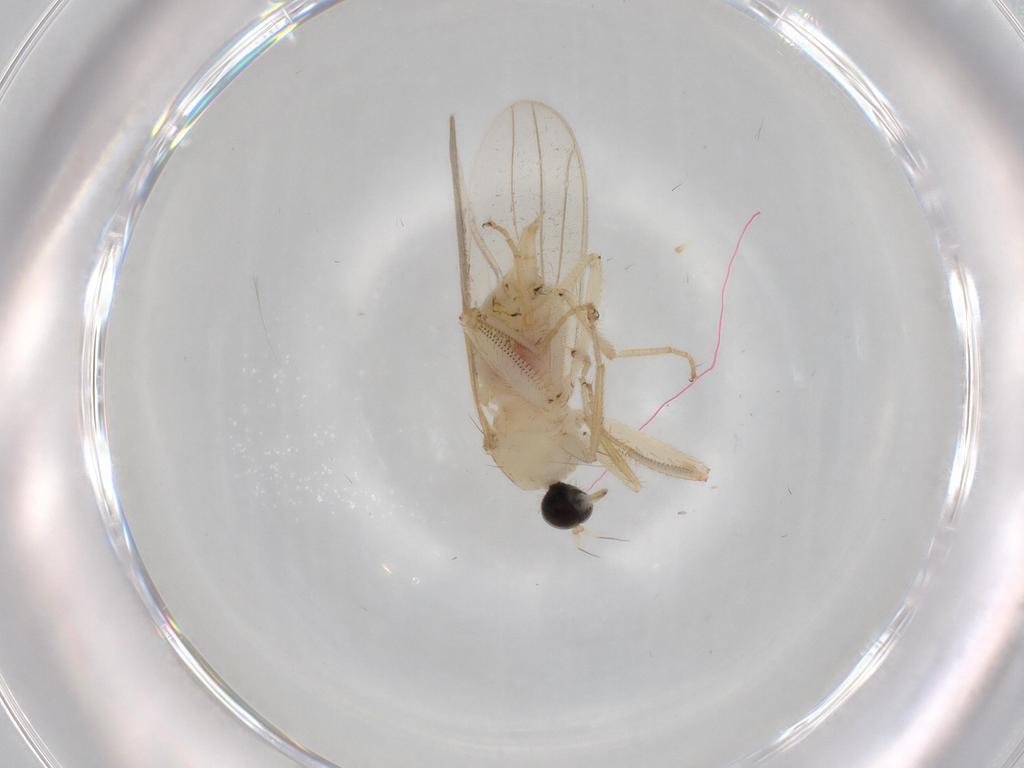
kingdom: Animalia
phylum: Arthropoda
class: Insecta
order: Diptera
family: Hybotidae
